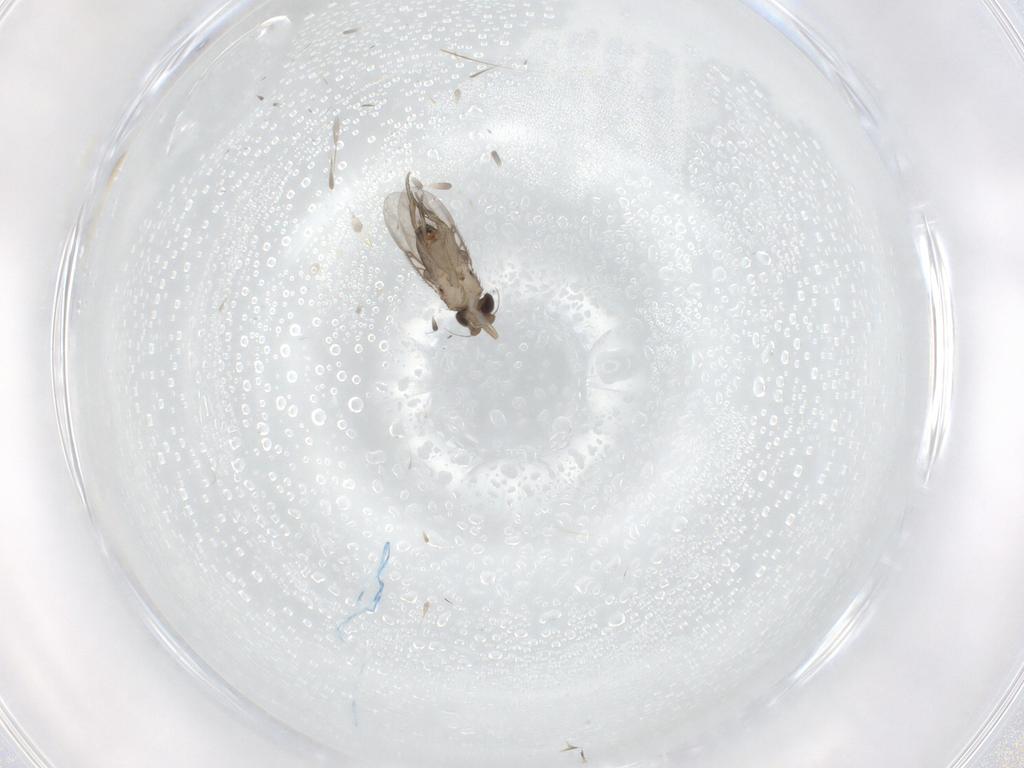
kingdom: Animalia
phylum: Arthropoda
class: Insecta
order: Diptera
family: Phoridae
